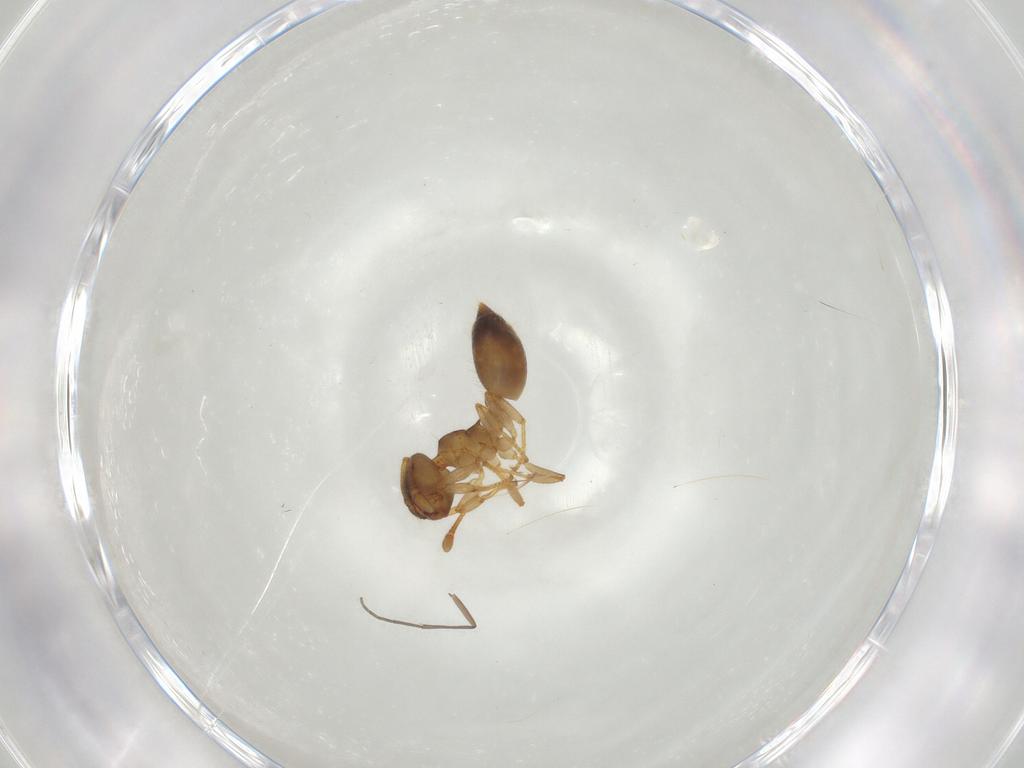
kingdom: Animalia
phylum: Arthropoda
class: Insecta
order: Hymenoptera
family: Formicidae
